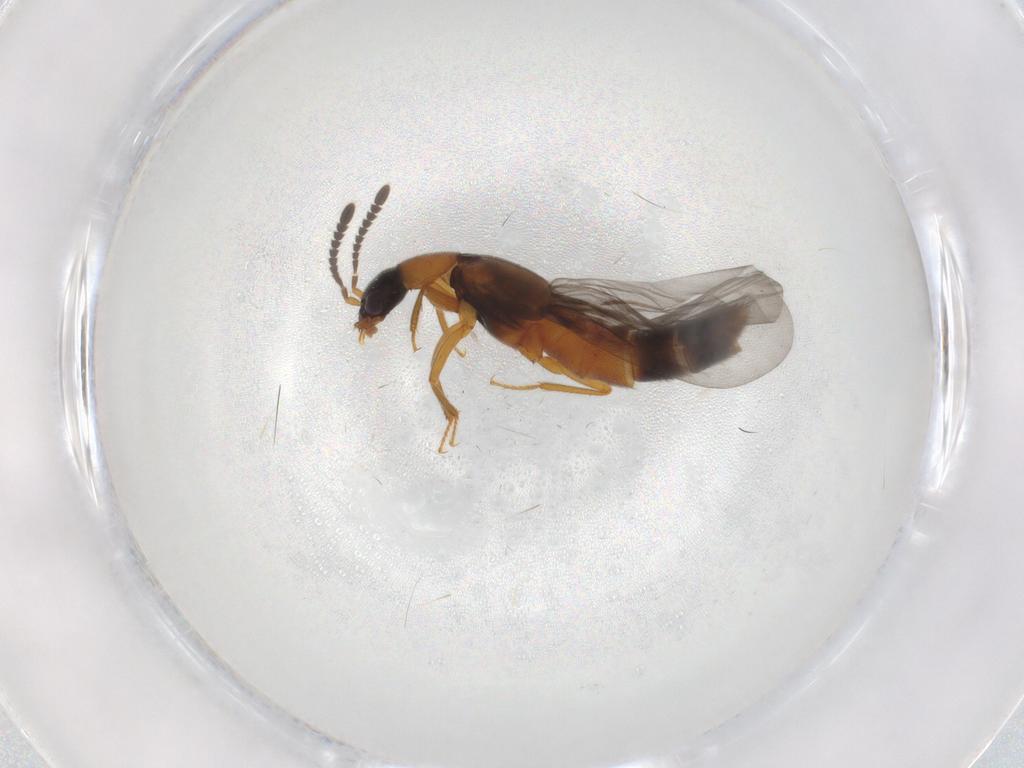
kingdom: Animalia
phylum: Arthropoda
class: Insecta
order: Coleoptera
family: Staphylinidae
